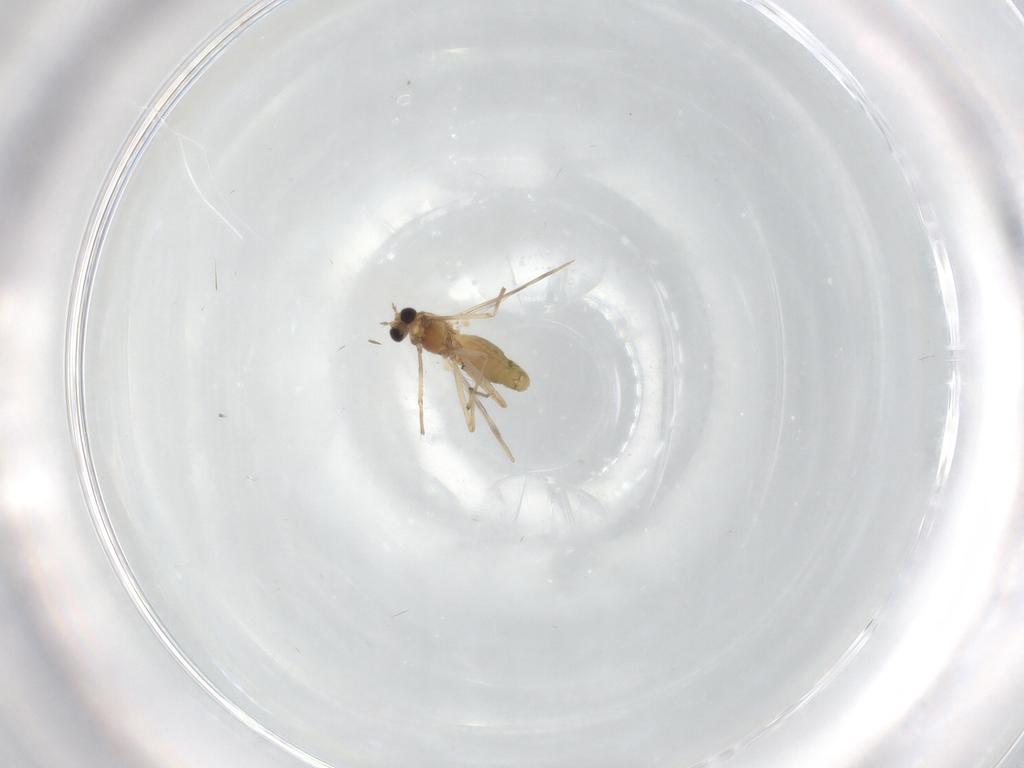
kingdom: Animalia
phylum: Arthropoda
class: Insecta
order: Diptera
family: Chironomidae
